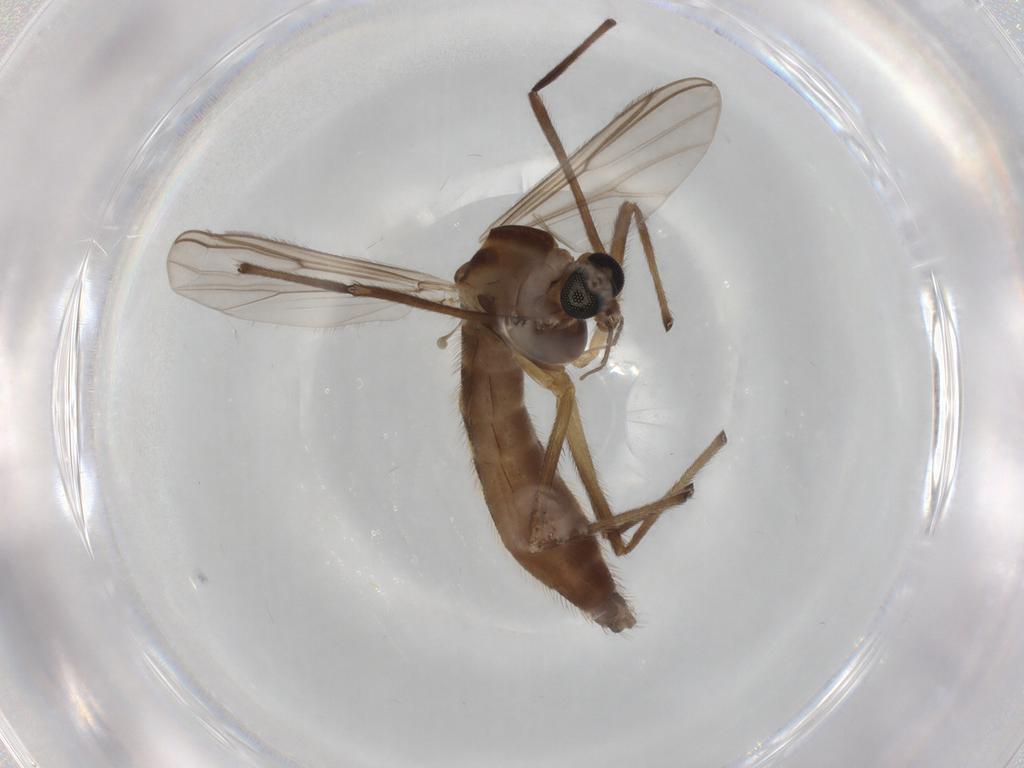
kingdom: Animalia
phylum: Arthropoda
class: Insecta
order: Diptera
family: Chironomidae
